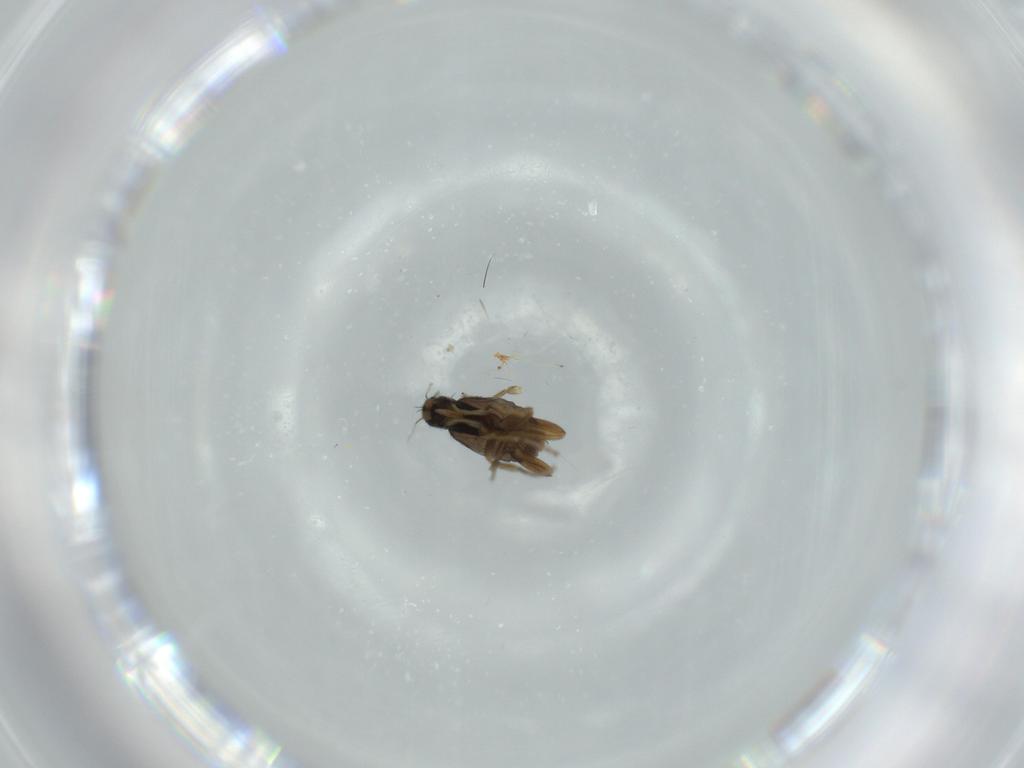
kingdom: Animalia
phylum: Arthropoda
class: Insecta
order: Diptera
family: Phoridae
